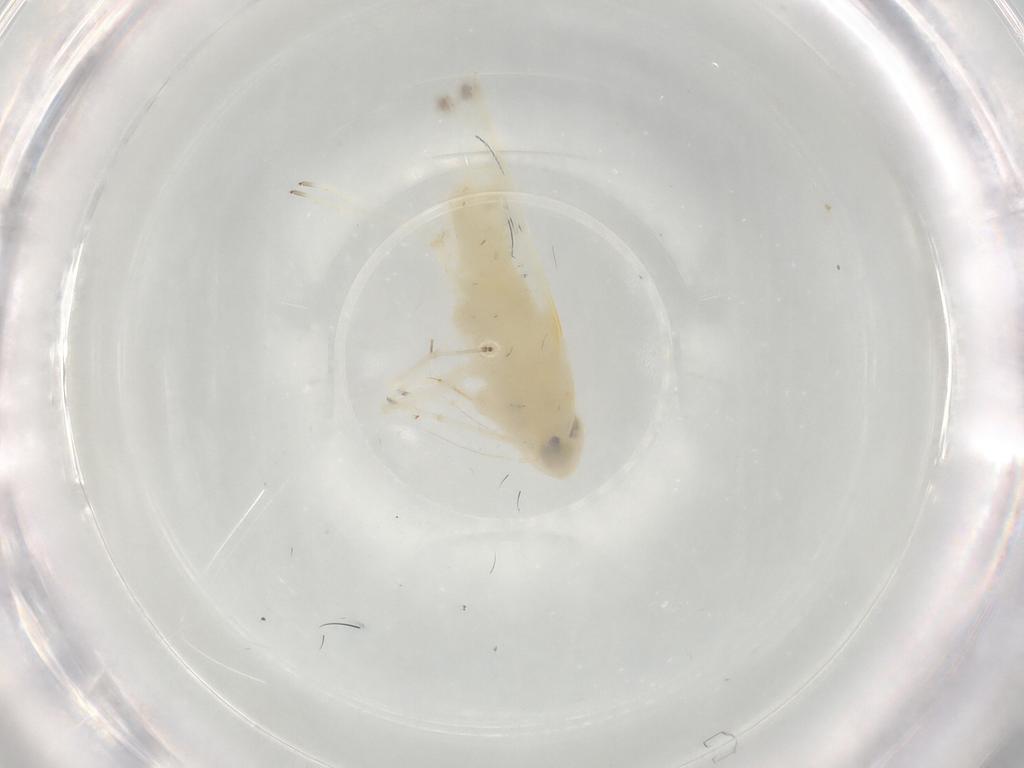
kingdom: Animalia
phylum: Arthropoda
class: Insecta
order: Hemiptera
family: Cicadellidae
